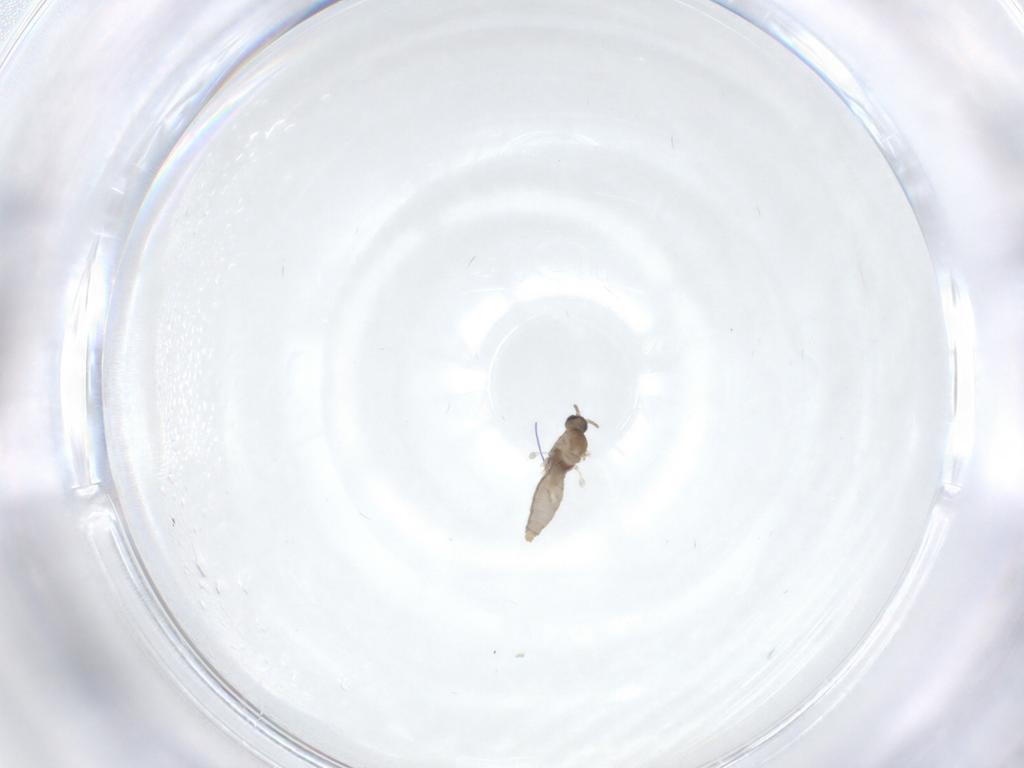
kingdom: Animalia
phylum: Arthropoda
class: Insecta
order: Diptera
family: Cecidomyiidae
